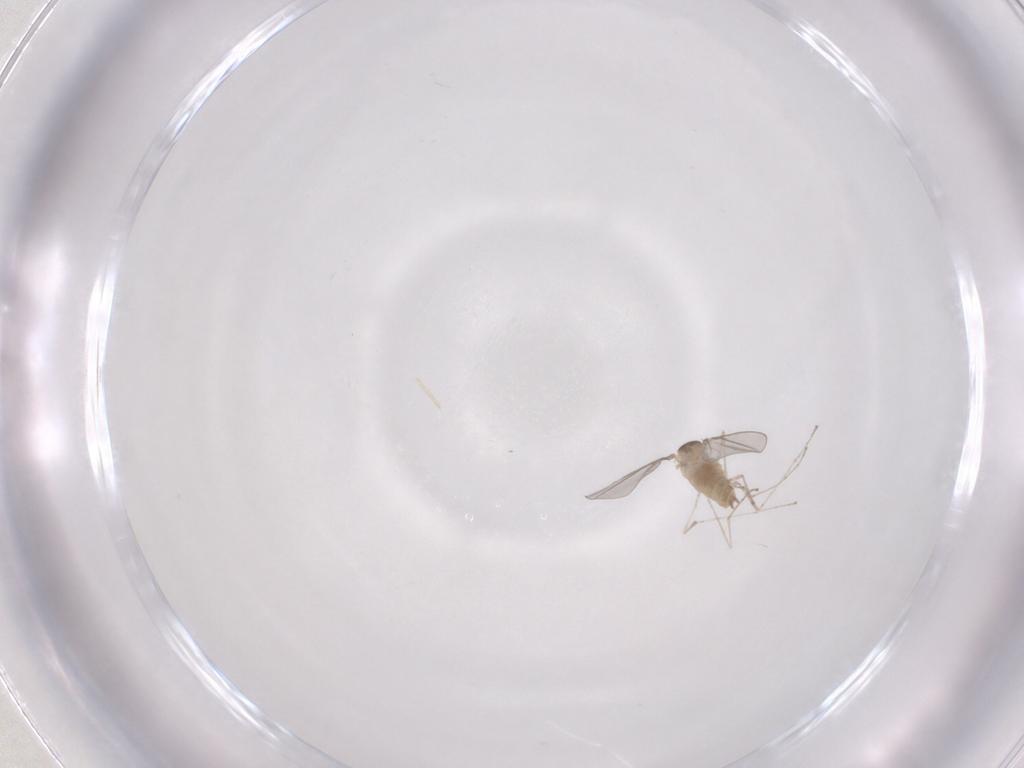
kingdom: Animalia
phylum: Arthropoda
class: Insecta
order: Diptera
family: Cecidomyiidae
